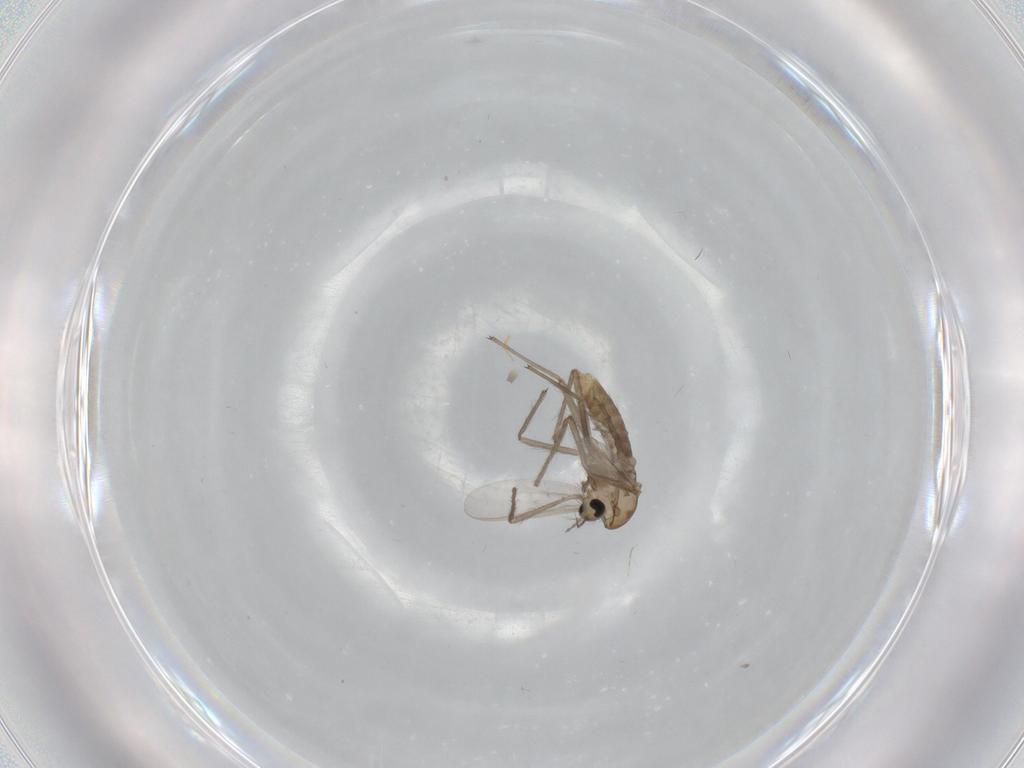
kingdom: Animalia
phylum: Arthropoda
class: Insecta
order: Diptera
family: Chironomidae
